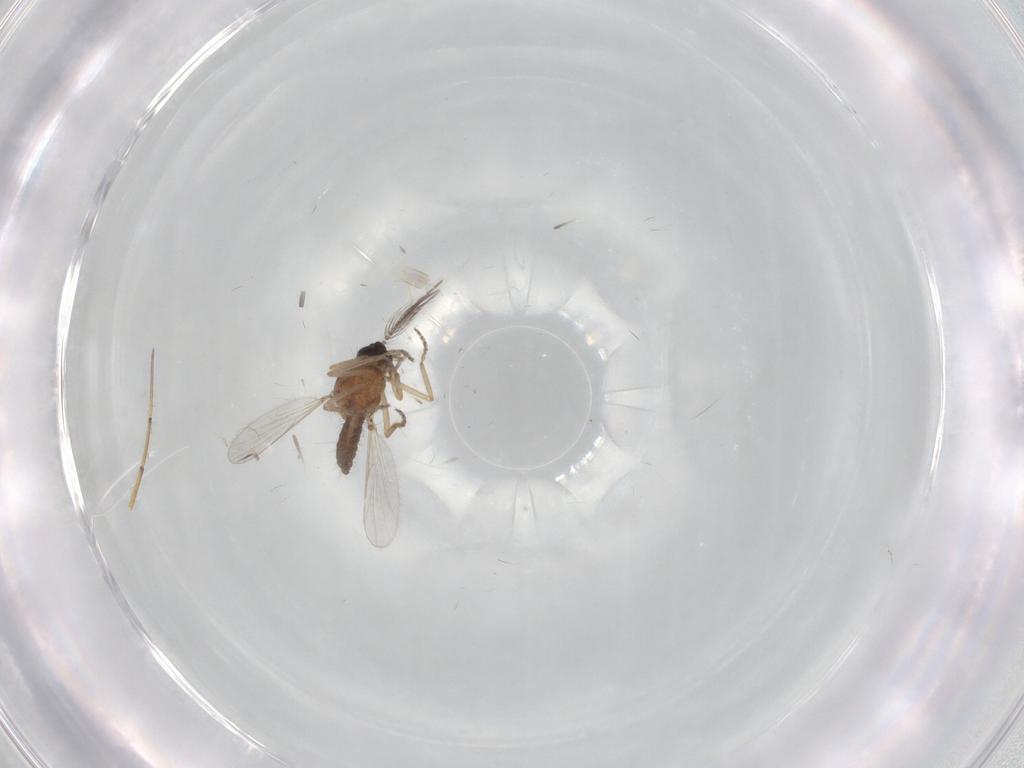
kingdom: Animalia
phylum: Arthropoda
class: Insecta
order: Diptera
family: Ceratopogonidae
